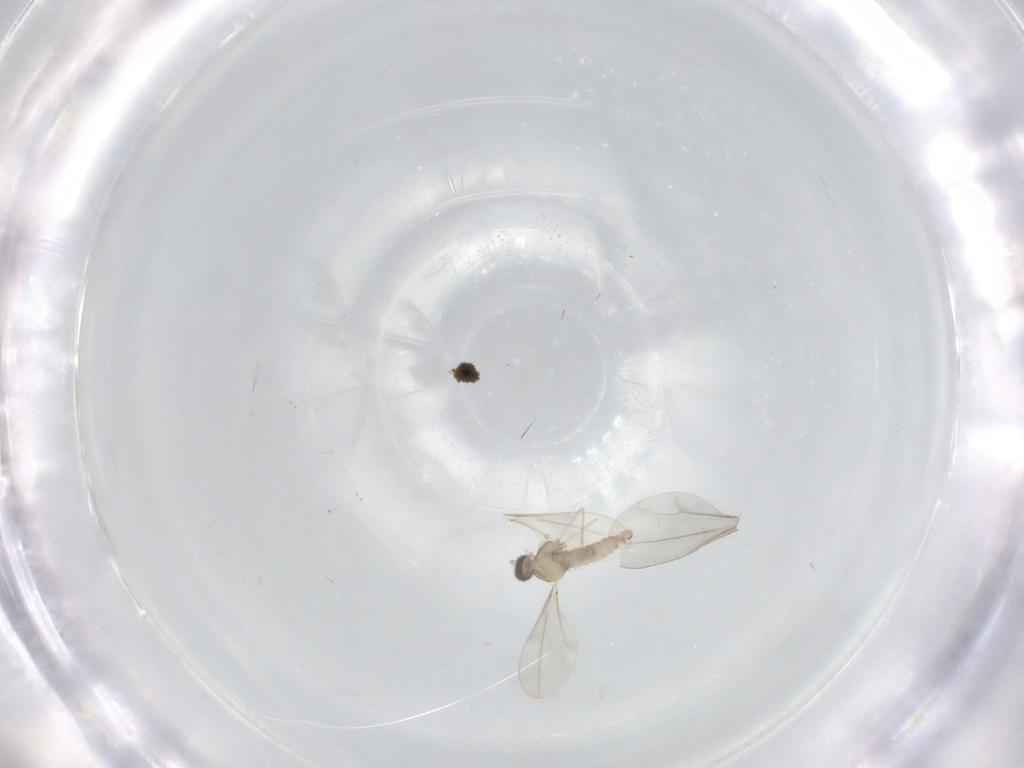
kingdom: Animalia
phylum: Arthropoda
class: Insecta
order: Diptera
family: Cecidomyiidae
